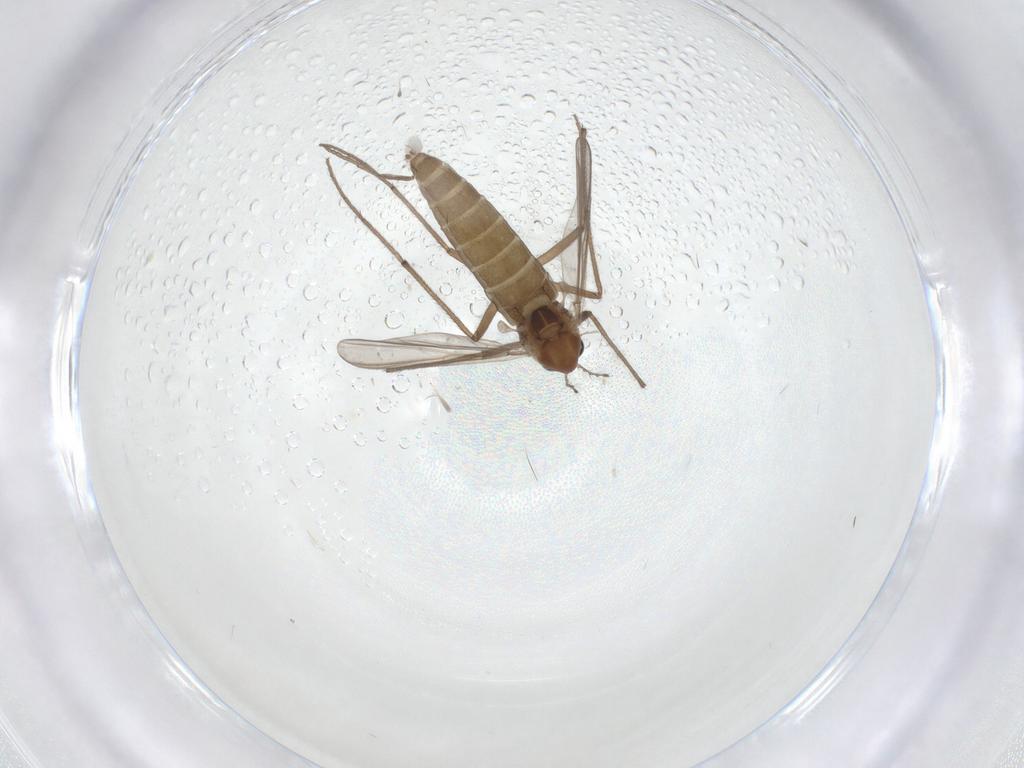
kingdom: Animalia
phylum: Arthropoda
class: Insecta
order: Diptera
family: Chironomidae
